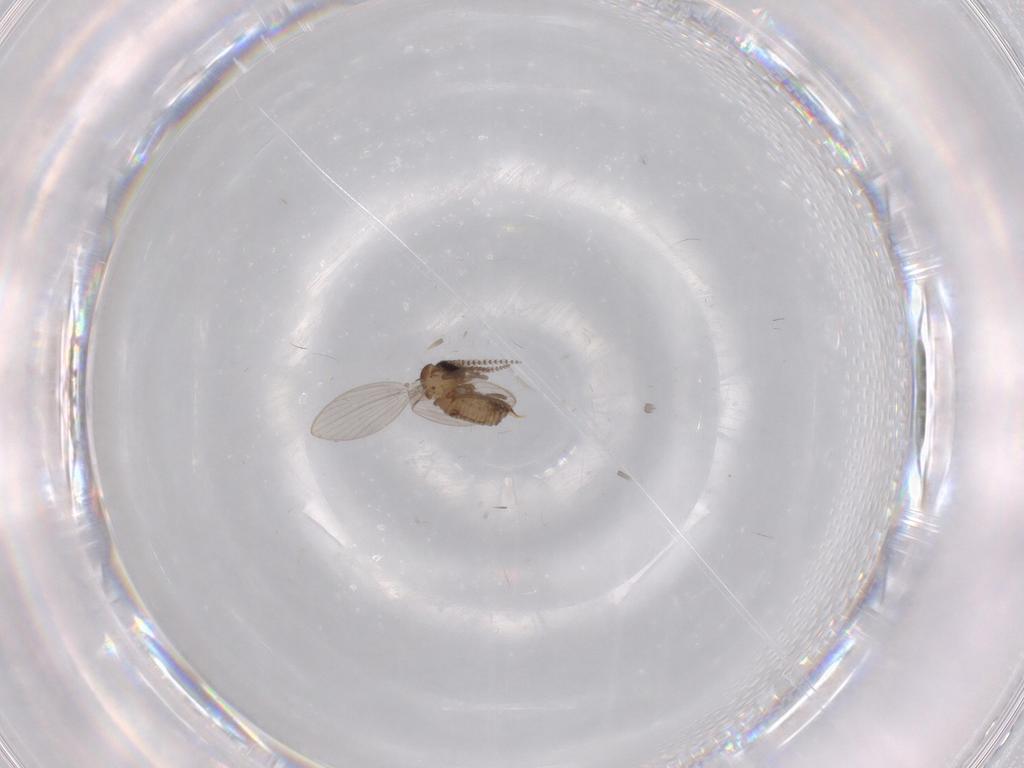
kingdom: Animalia
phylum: Arthropoda
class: Insecta
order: Diptera
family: Psychodidae
